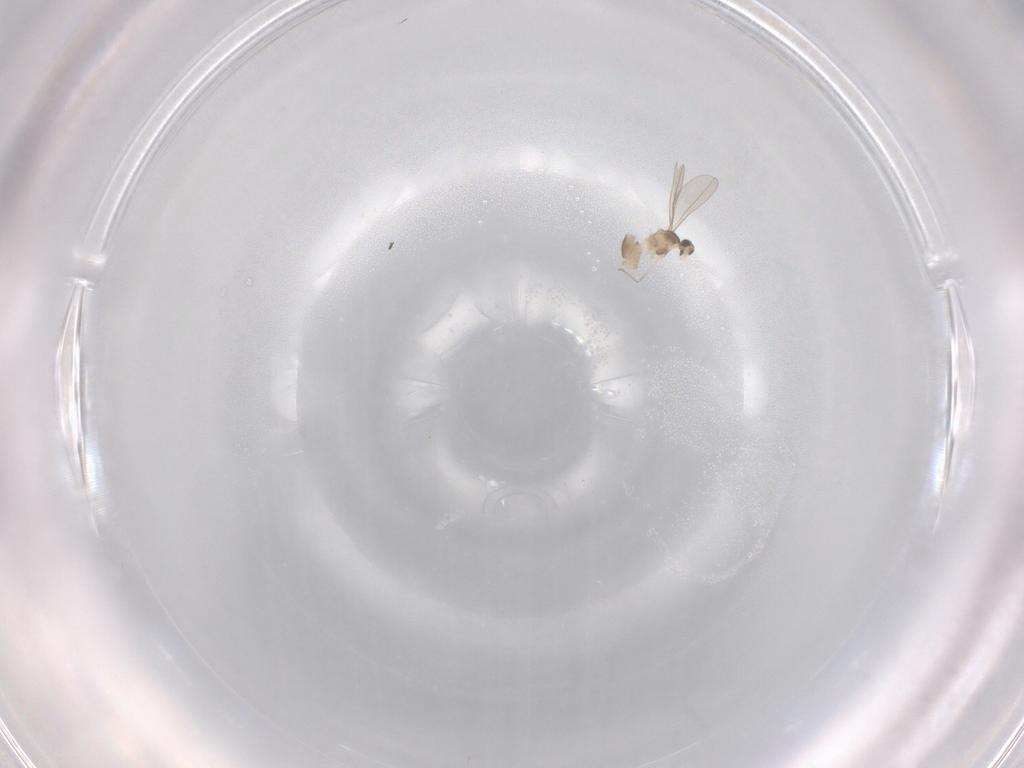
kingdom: Animalia
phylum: Arthropoda
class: Insecta
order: Diptera
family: Cecidomyiidae
